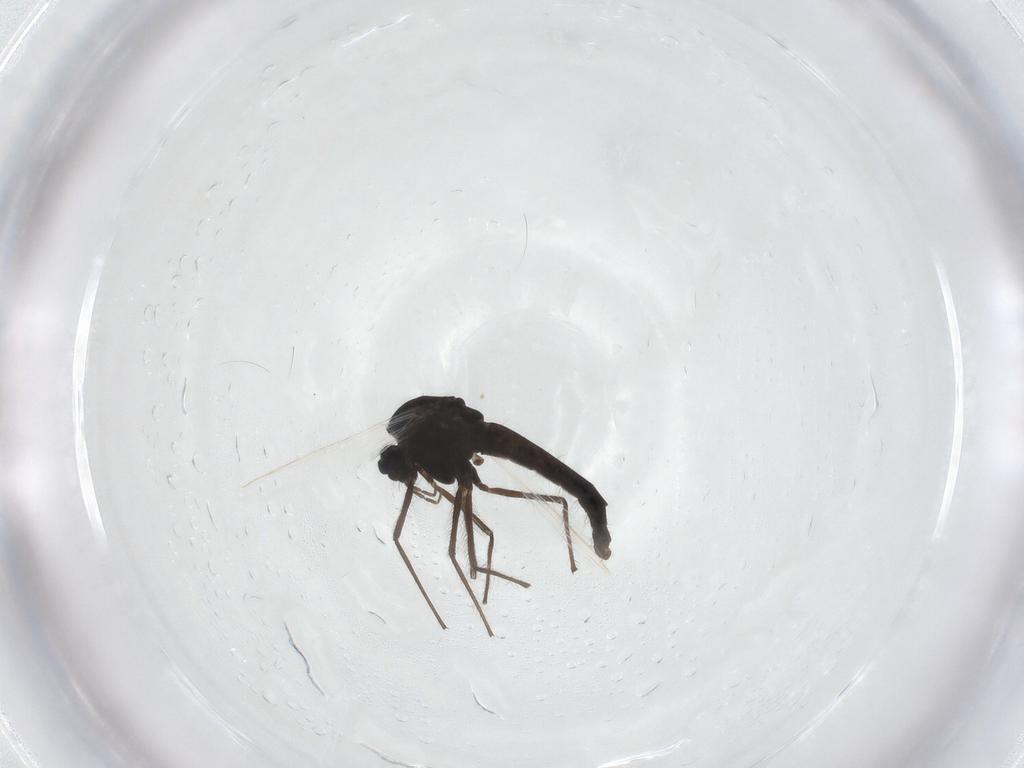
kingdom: Animalia
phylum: Arthropoda
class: Insecta
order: Diptera
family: Chironomidae
